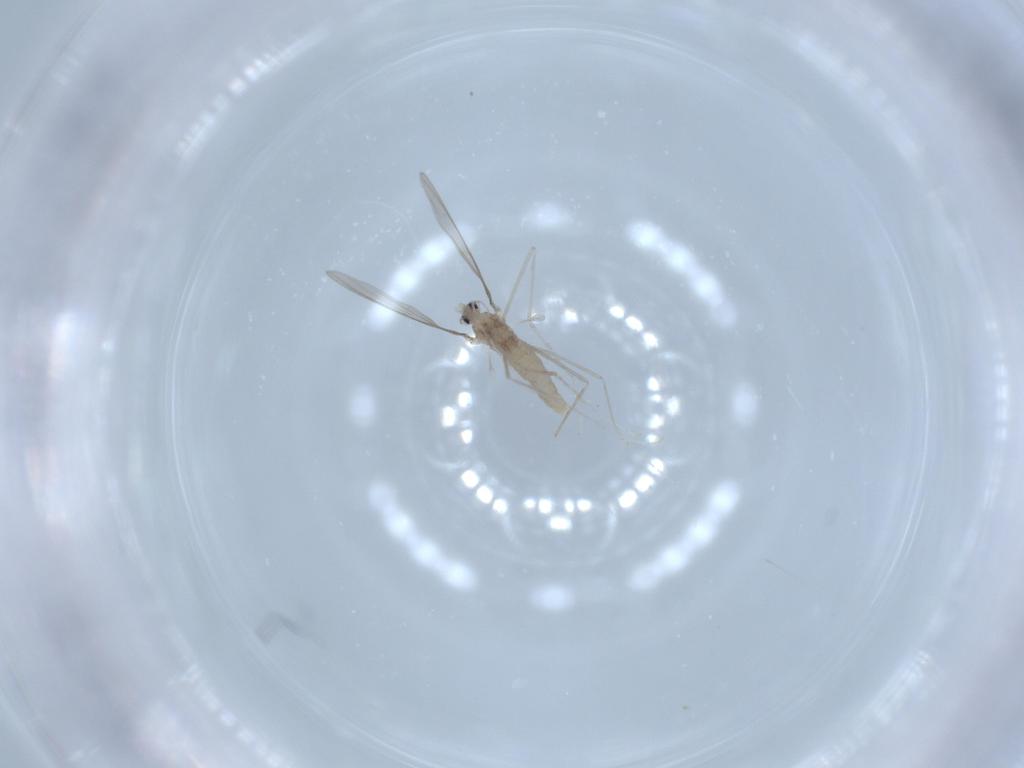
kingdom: Animalia
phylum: Arthropoda
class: Insecta
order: Diptera
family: Cecidomyiidae
